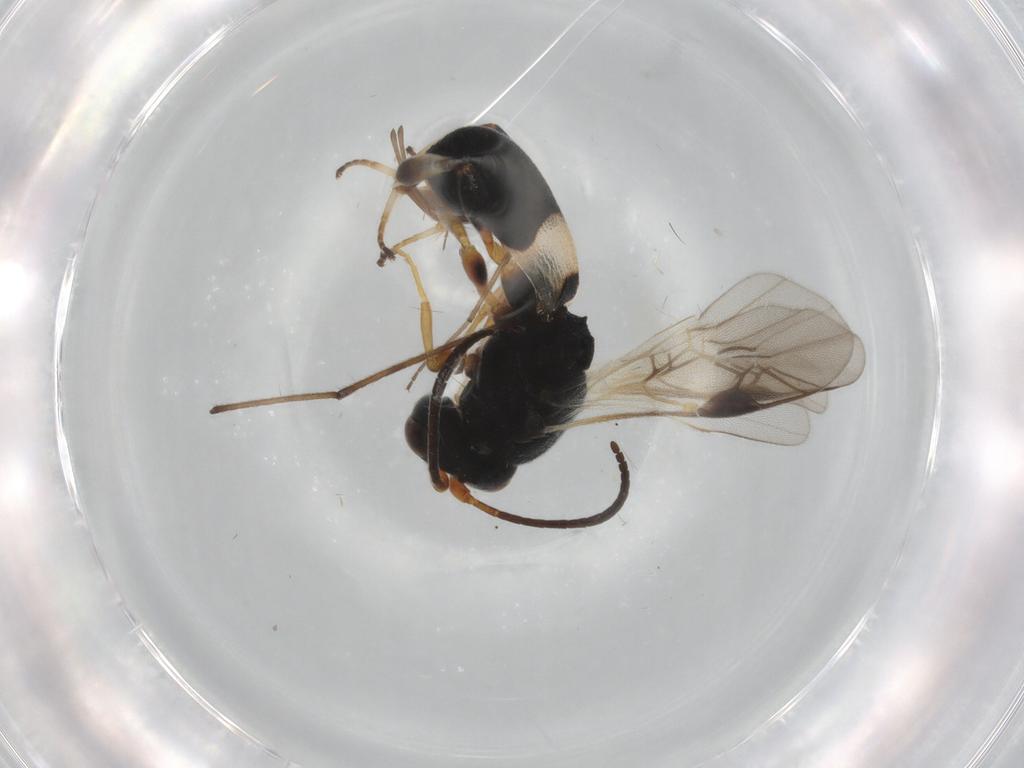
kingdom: Animalia
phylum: Arthropoda
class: Insecta
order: Hymenoptera
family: Braconidae
